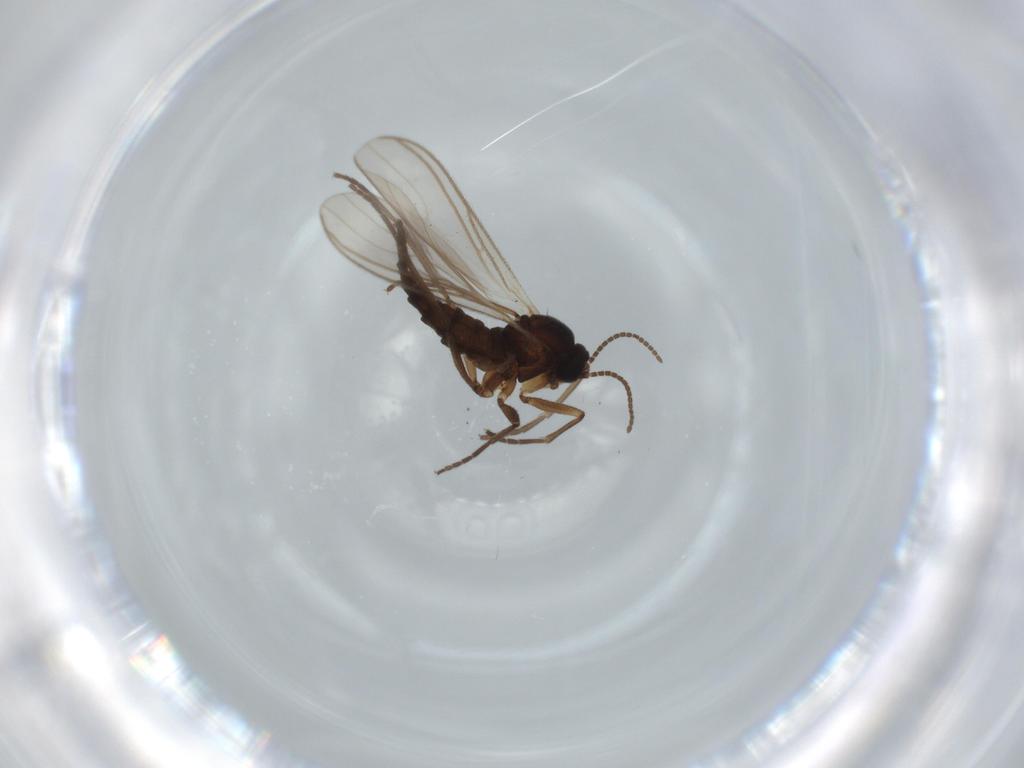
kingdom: Animalia
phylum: Arthropoda
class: Insecta
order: Diptera
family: Sciaridae
